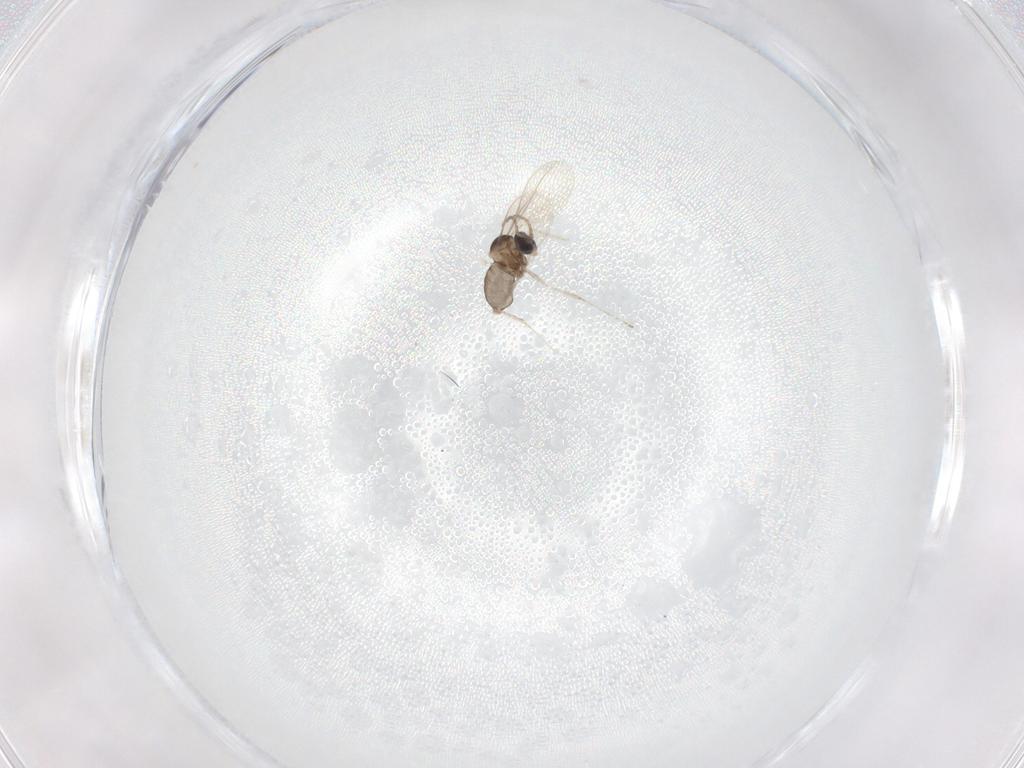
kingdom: Animalia
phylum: Arthropoda
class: Insecta
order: Diptera
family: Cecidomyiidae
